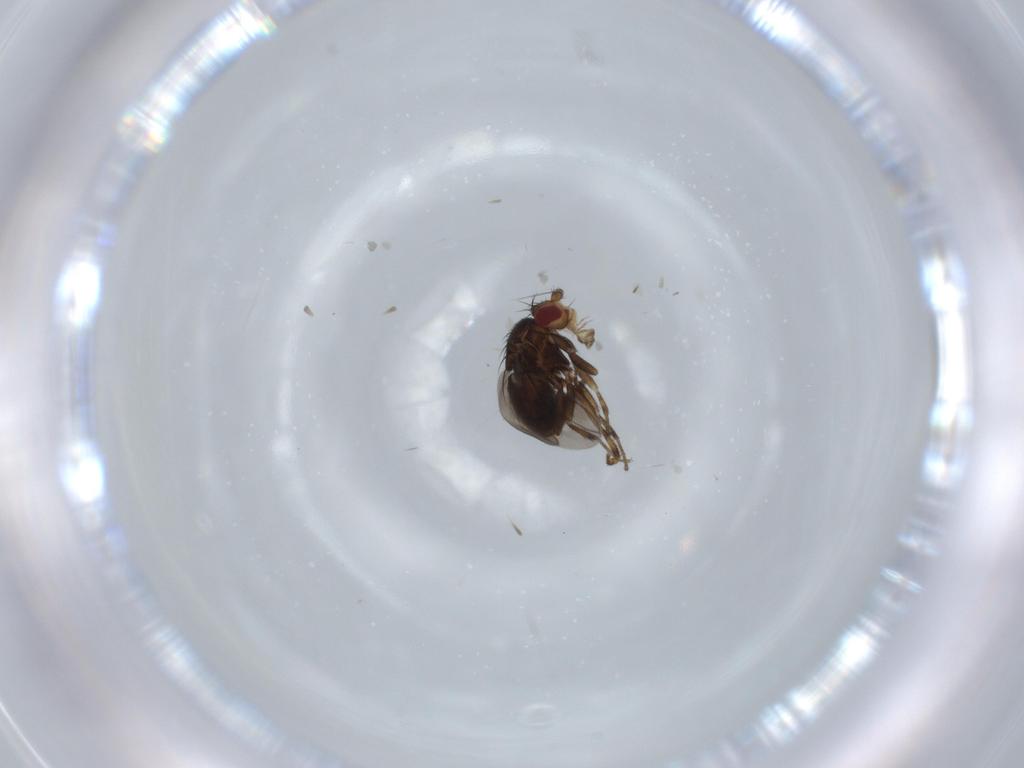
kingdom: Animalia
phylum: Arthropoda
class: Insecta
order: Diptera
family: Sphaeroceridae
